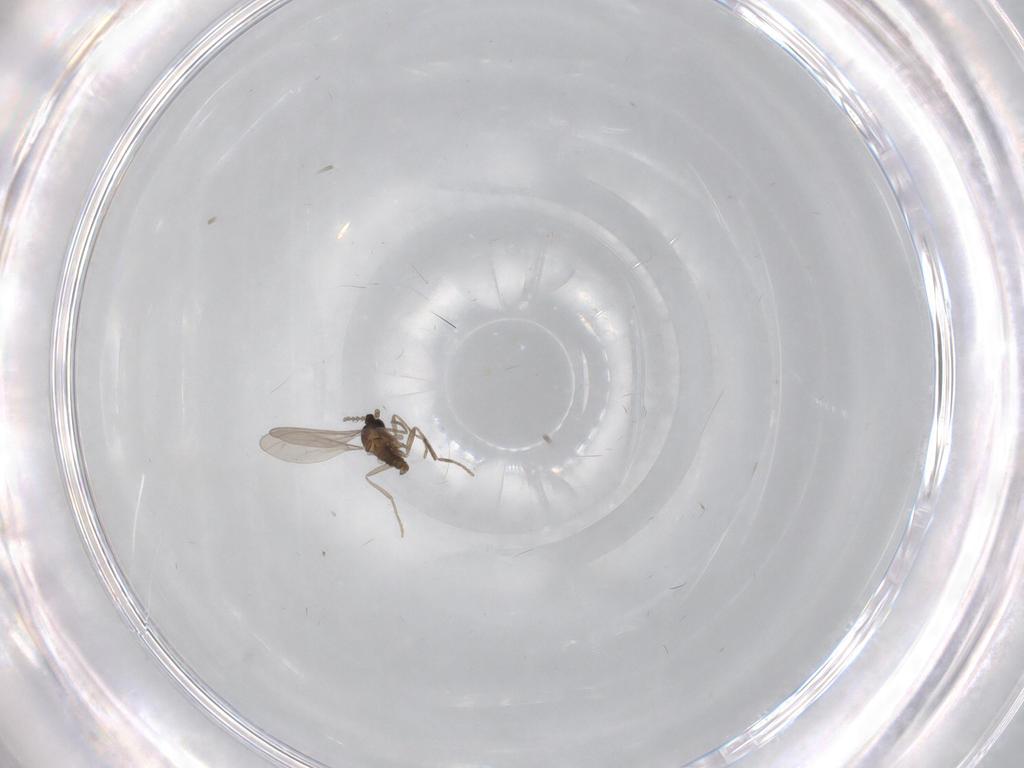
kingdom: Animalia
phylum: Arthropoda
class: Insecta
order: Diptera
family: Cecidomyiidae
